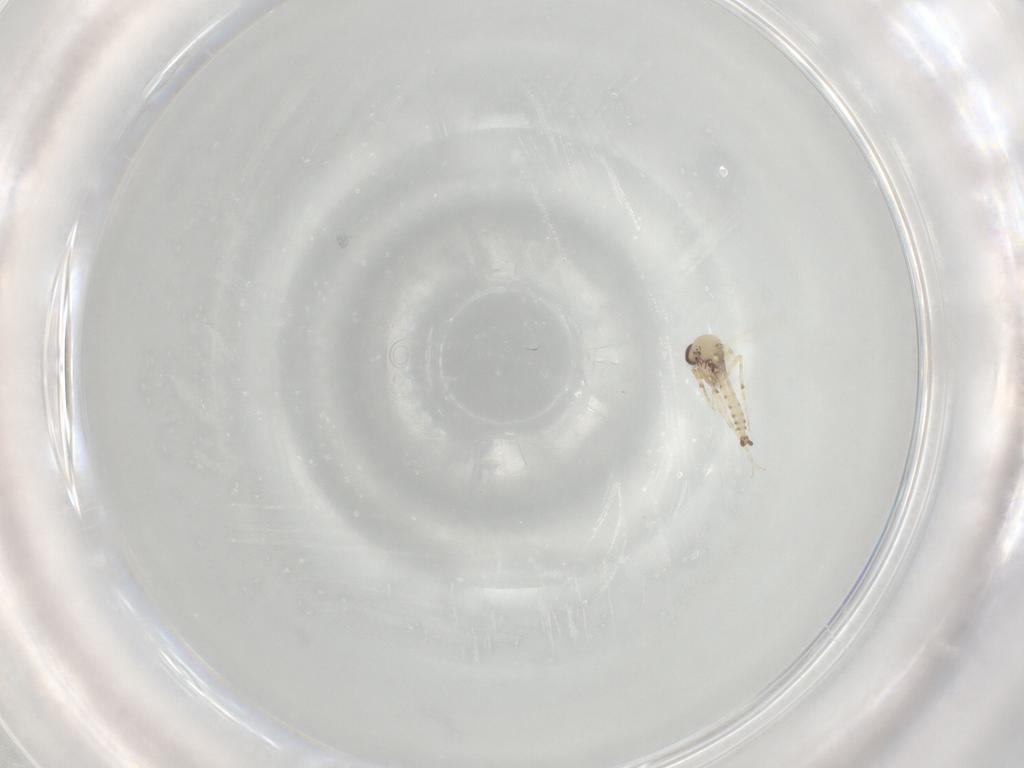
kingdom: Animalia
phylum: Arthropoda
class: Insecta
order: Diptera
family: Ceratopogonidae
